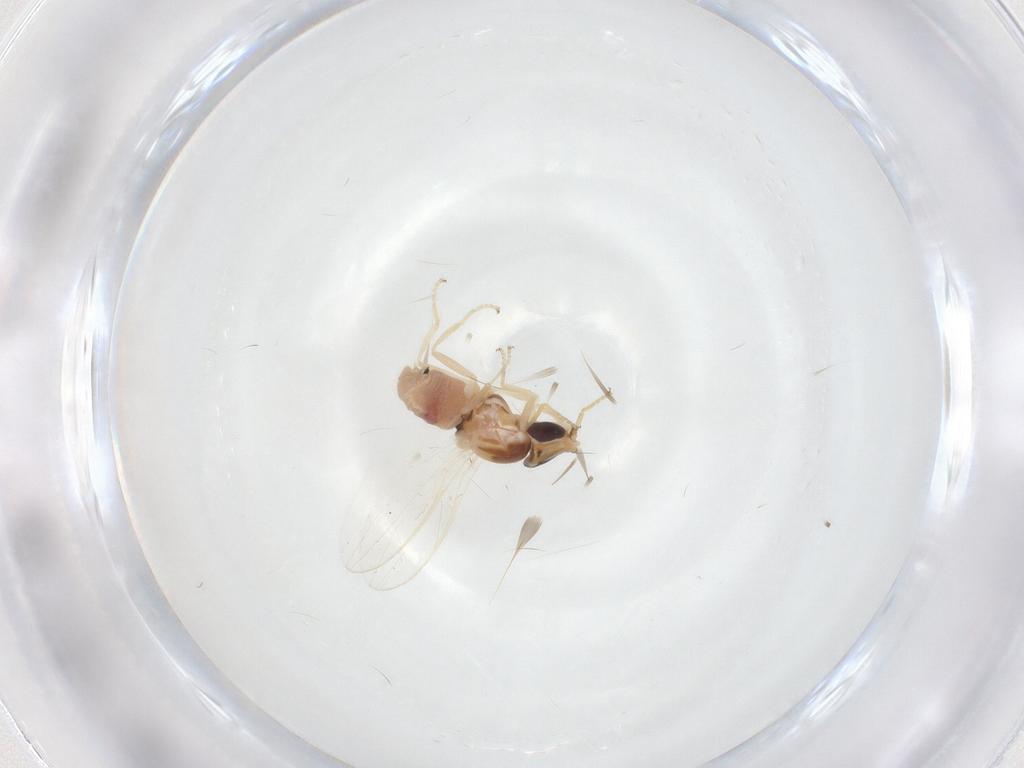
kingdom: Animalia
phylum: Arthropoda
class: Insecta
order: Diptera
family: Chloropidae
